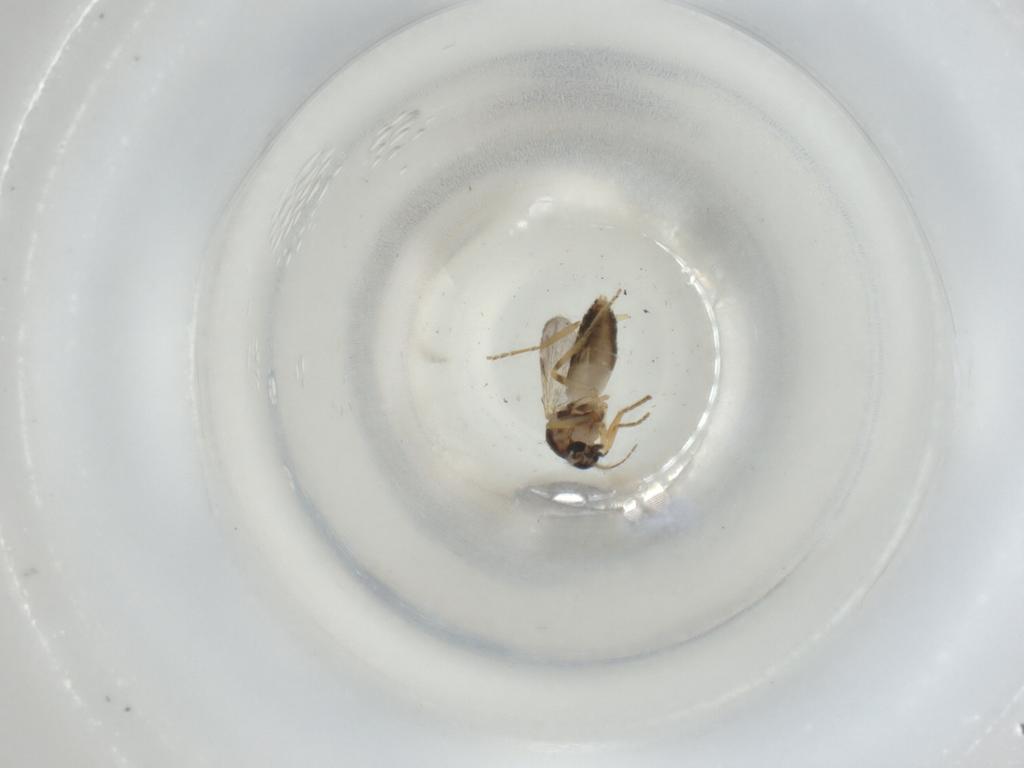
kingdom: Animalia
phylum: Arthropoda
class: Insecta
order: Diptera
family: Ceratopogonidae
